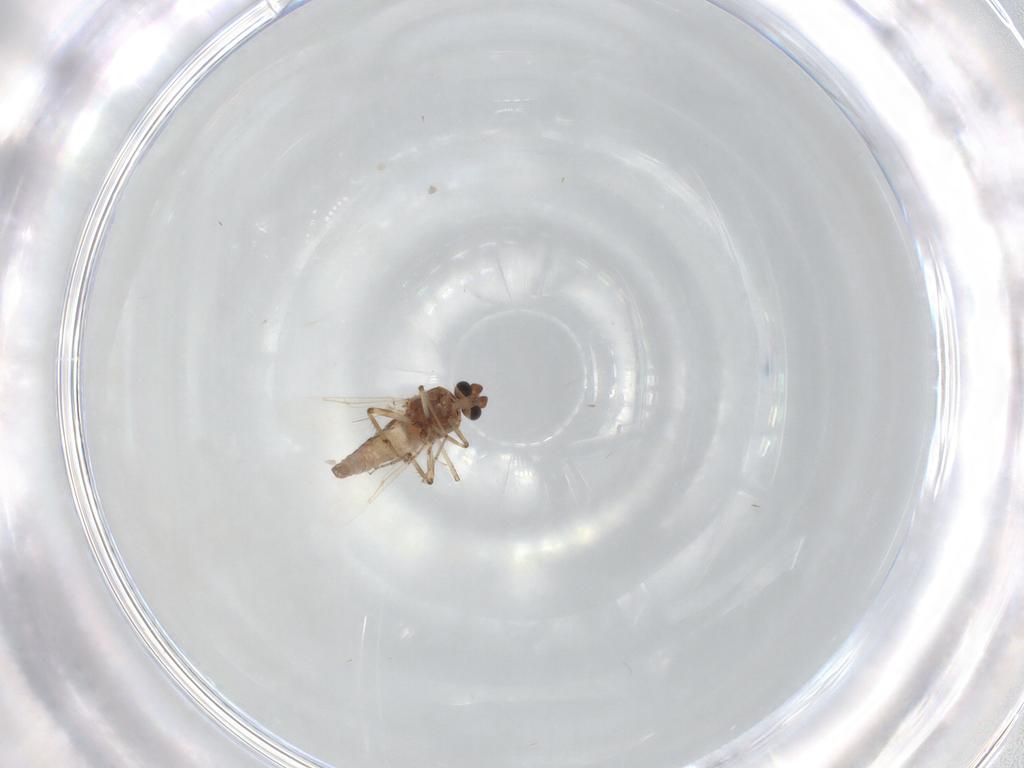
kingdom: Animalia
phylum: Arthropoda
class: Insecta
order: Diptera
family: Ceratopogonidae
